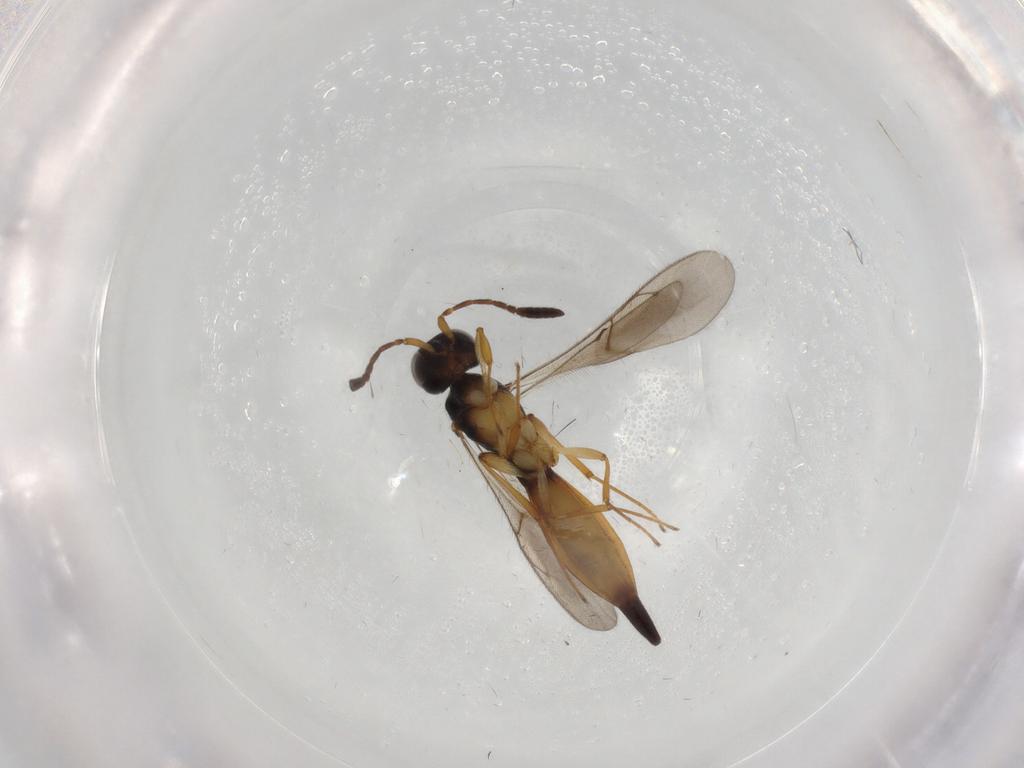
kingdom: Animalia
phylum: Arthropoda
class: Insecta
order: Hymenoptera
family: Scelionidae
